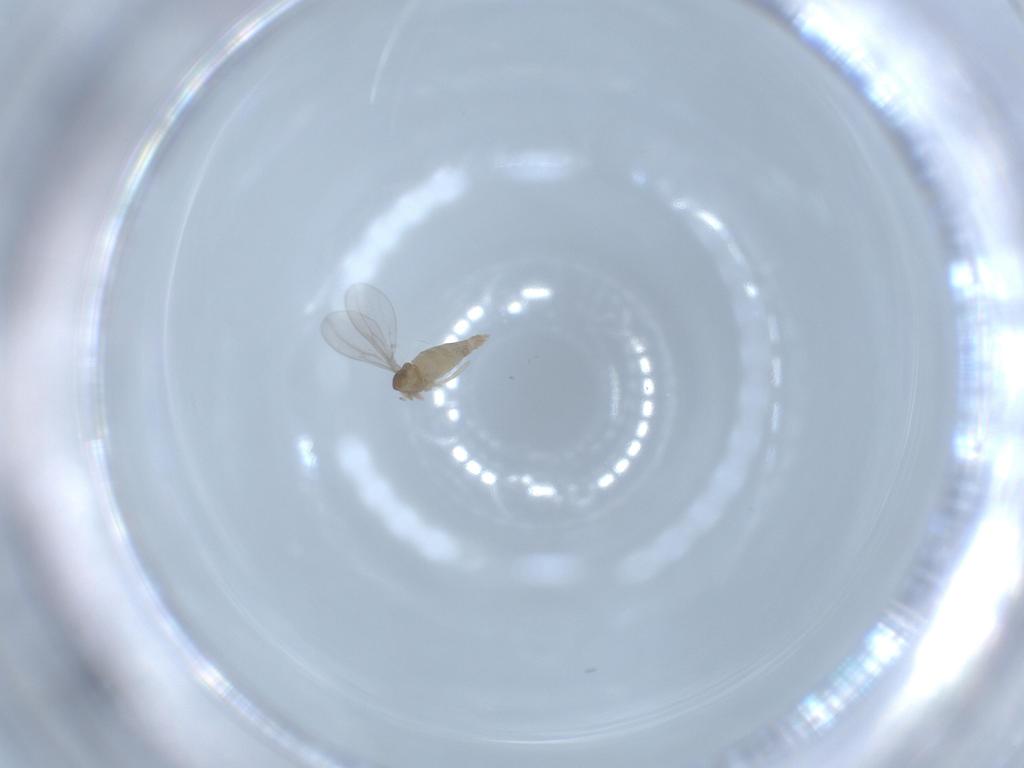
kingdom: Animalia
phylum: Arthropoda
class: Insecta
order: Diptera
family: Cecidomyiidae
